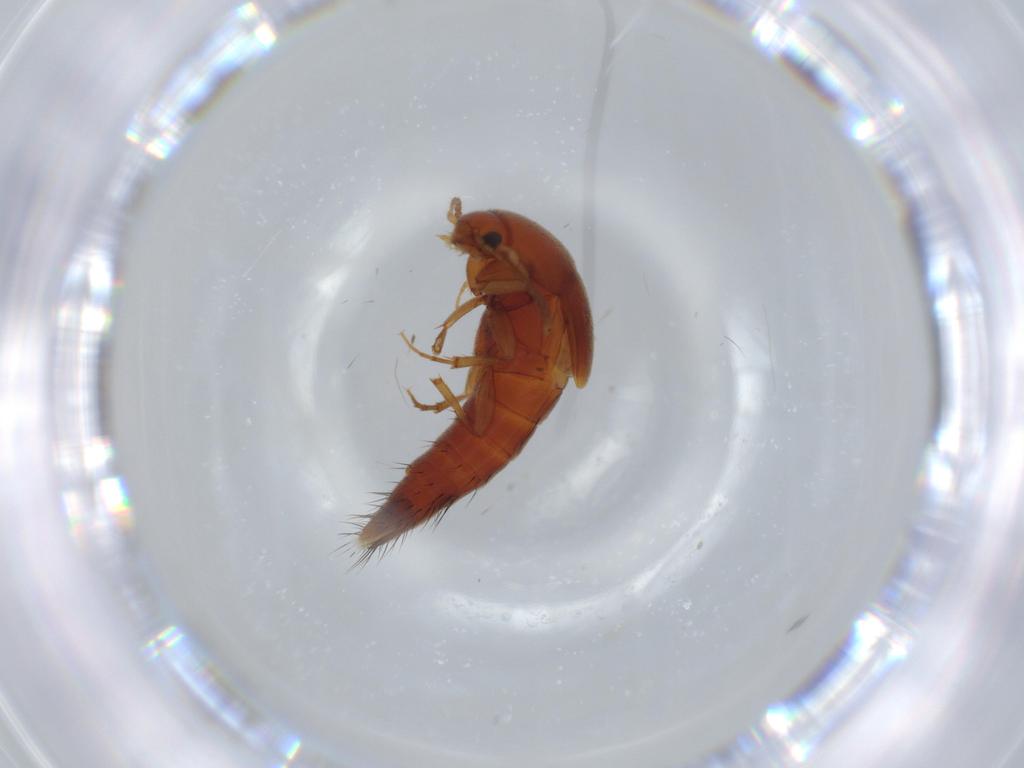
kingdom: Animalia
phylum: Arthropoda
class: Insecta
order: Coleoptera
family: Staphylinidae
